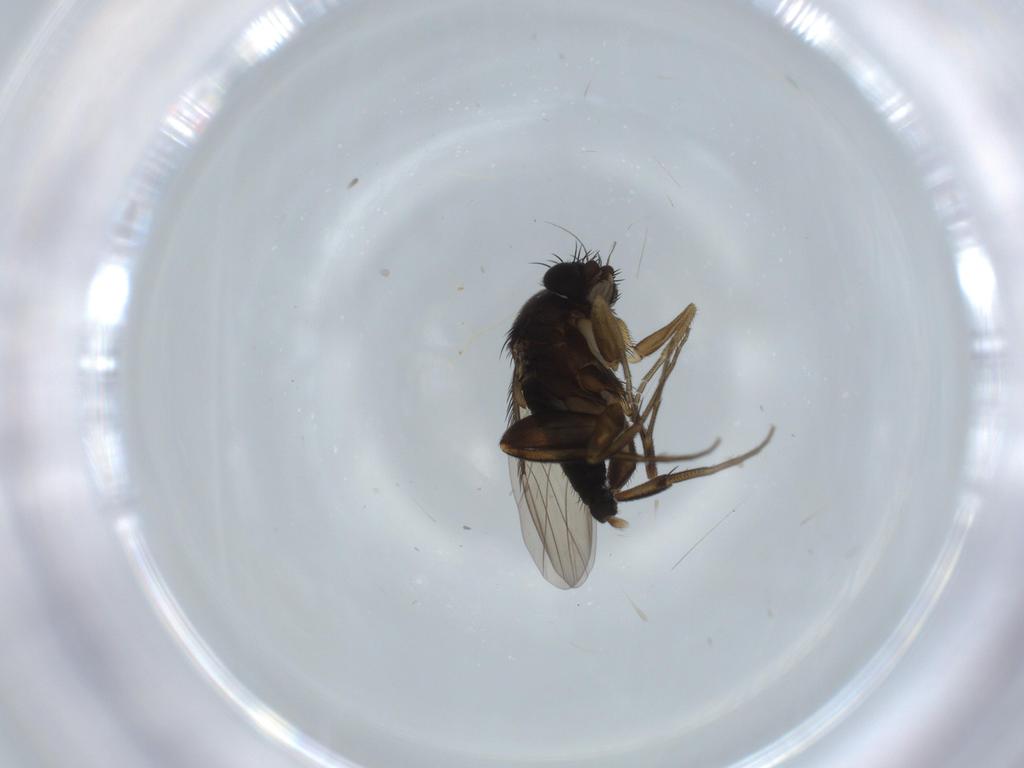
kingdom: Animalia
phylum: Arthropoda
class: Insecta
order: Diptera
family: Phoridae
